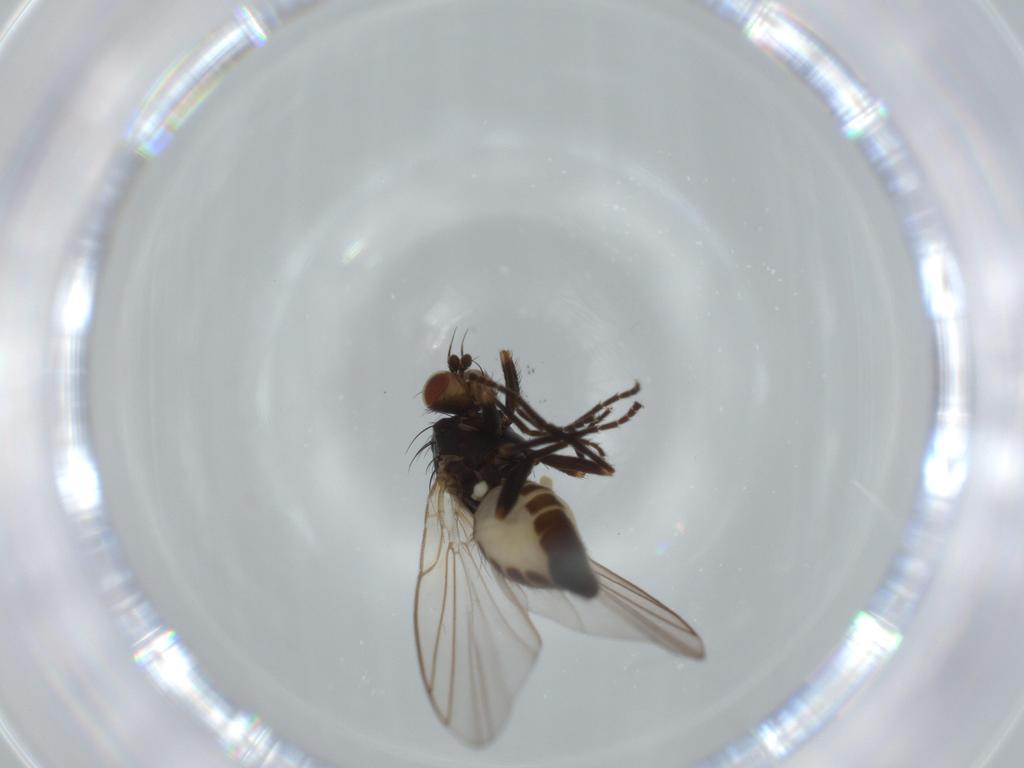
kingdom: Animalia
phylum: Arthropoda
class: Insecta
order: Diptera
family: Agromyzidae
